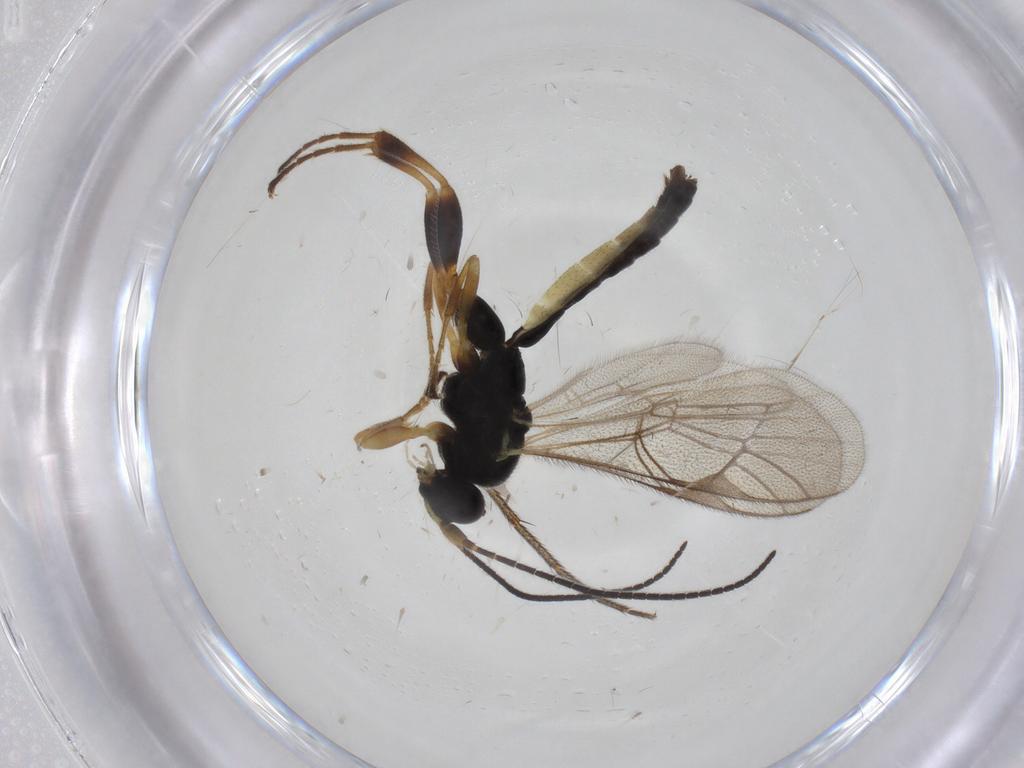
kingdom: Animalia
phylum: Arthropoda
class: Insecta
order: Hymenoptera
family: Ichneumonidae
